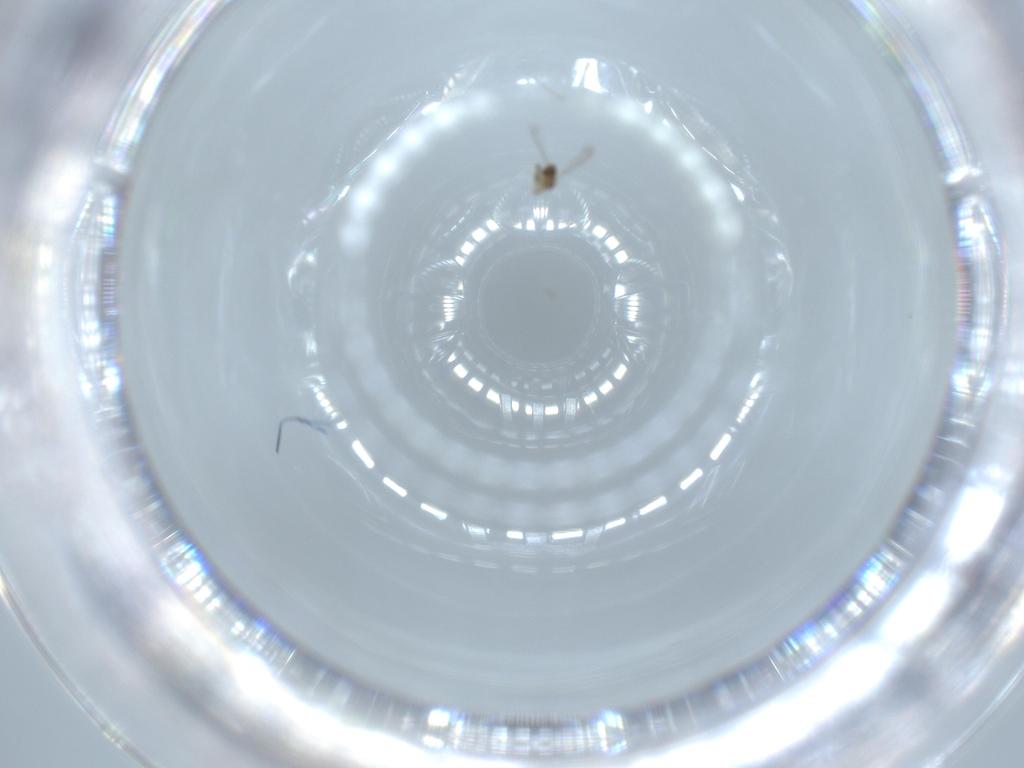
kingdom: Animalia
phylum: Arthropoda
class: Insecta
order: Hymenoptera
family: Mymaridae
